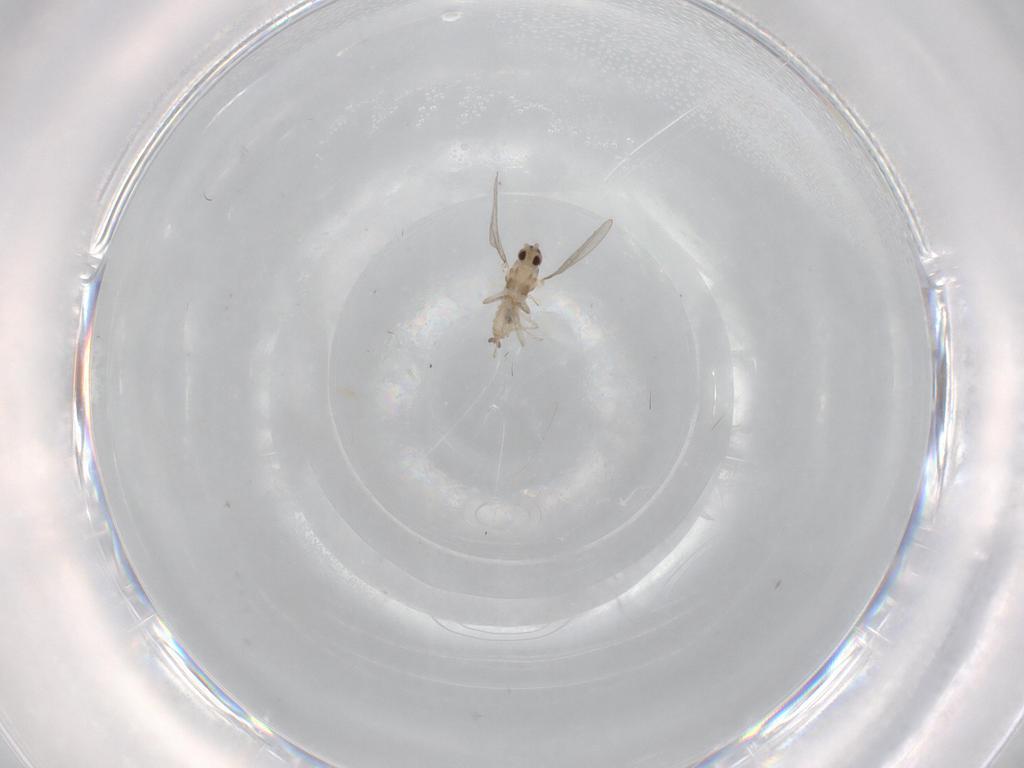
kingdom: Animalia
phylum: Arthropoda
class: Insecta
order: Diptera
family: Cecidomyiidae
